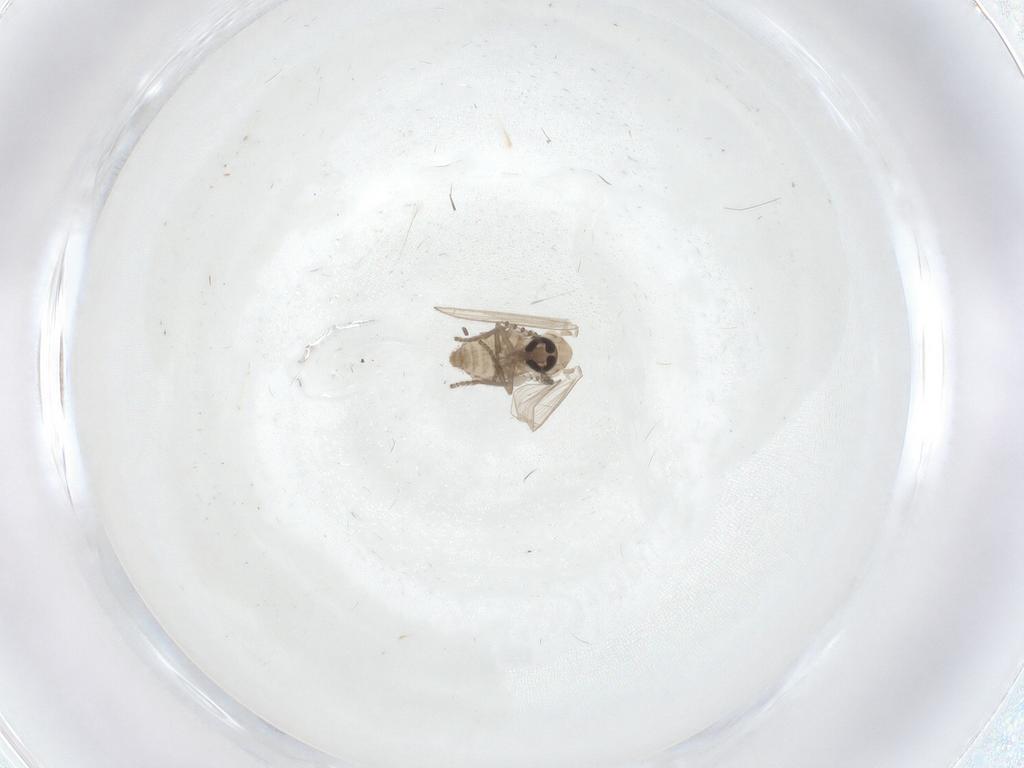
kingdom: Animalia
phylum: Arthropoda
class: Insecta
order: Diptera
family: Psychodidae
